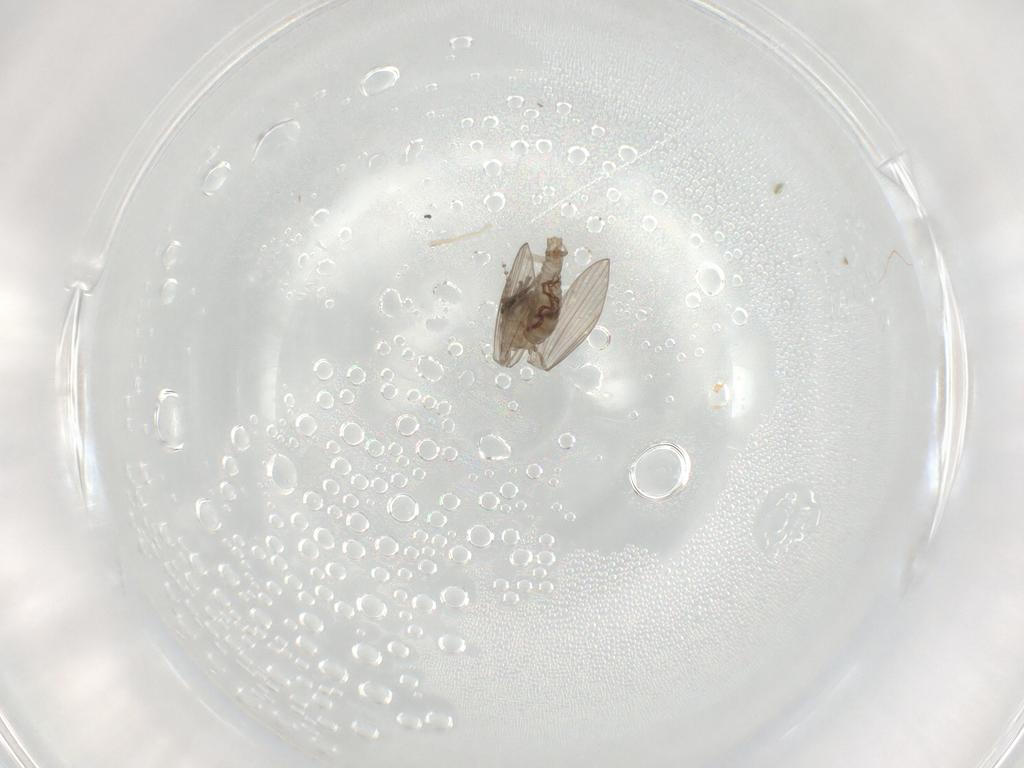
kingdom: Animalia
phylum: Arthropoda
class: Insecta
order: Diptera
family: Psychodidae
